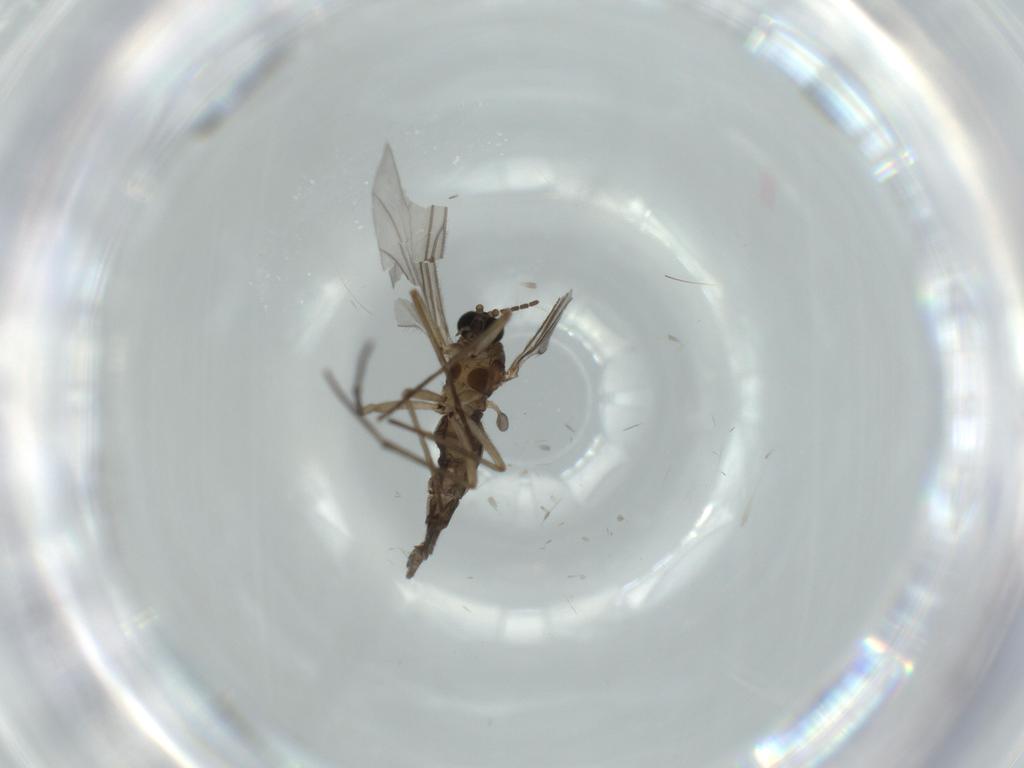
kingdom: Animalia
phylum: Arthropoda
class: Insecta
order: Diptera
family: Sciaridae
